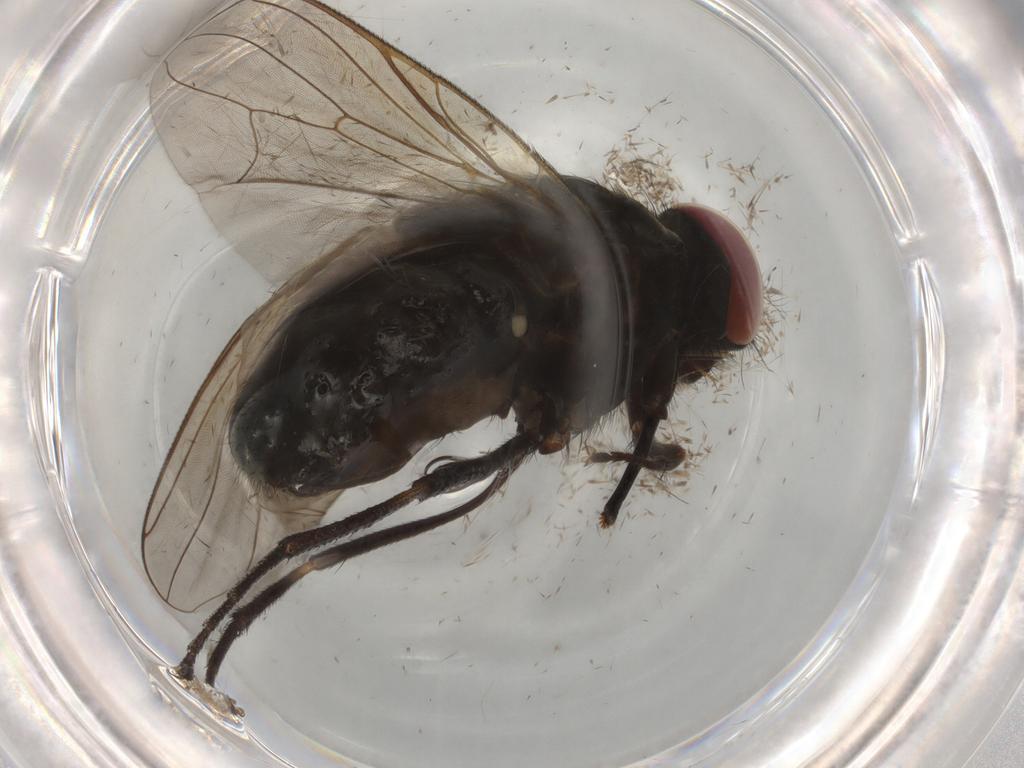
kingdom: Animalia
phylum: Arthropoda
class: Insecta
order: Diptera
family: Muscidae
